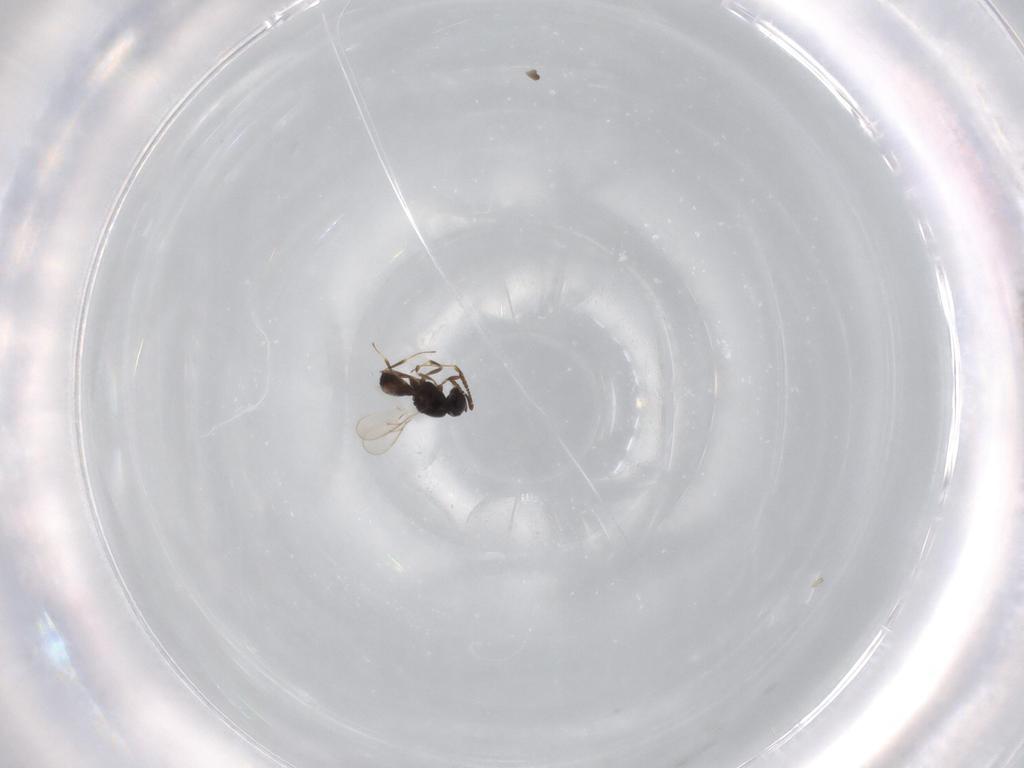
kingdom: Animalia
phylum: Arthropoda
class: Insecta
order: Hymenoptera
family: Scelionidae
